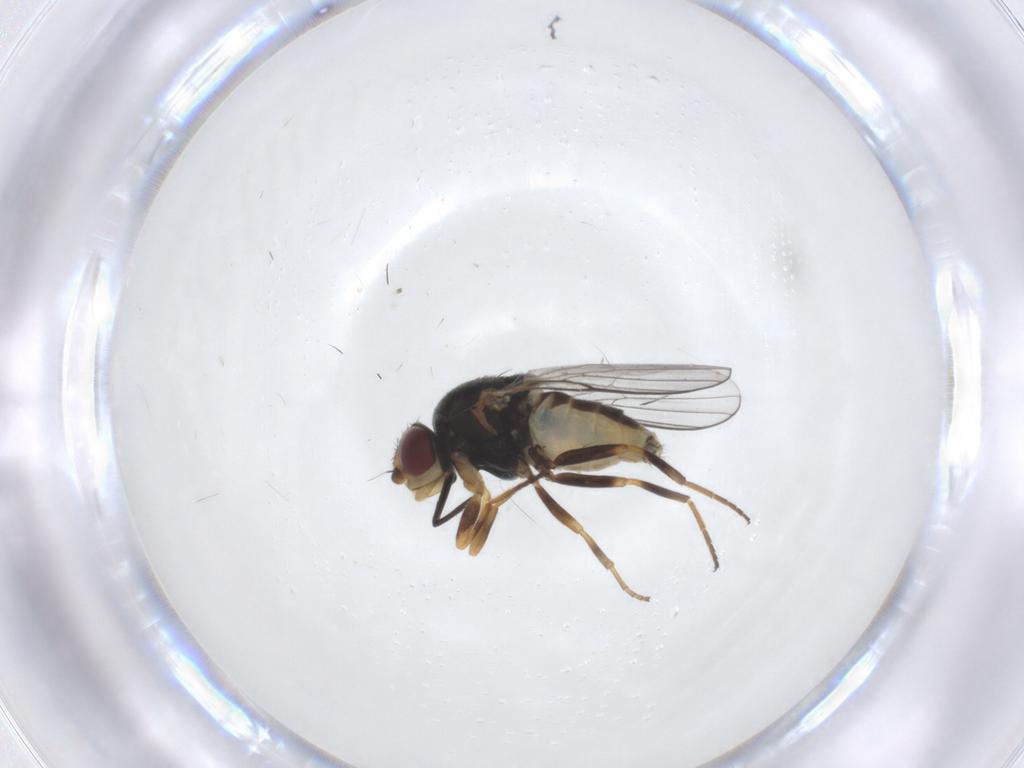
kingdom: Animalia
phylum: Arthropoda
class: Insecta
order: Diptera
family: Chloropidae
